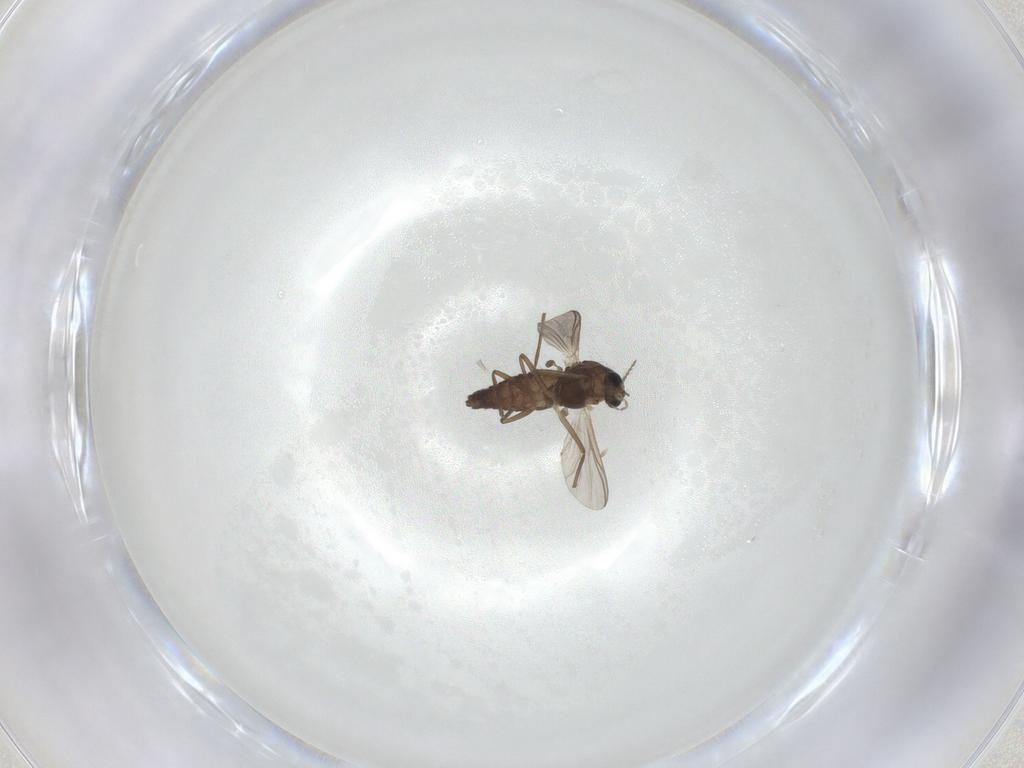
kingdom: Animalia
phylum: Arthropoda
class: Insecta
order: Diptera
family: Chironomidae
